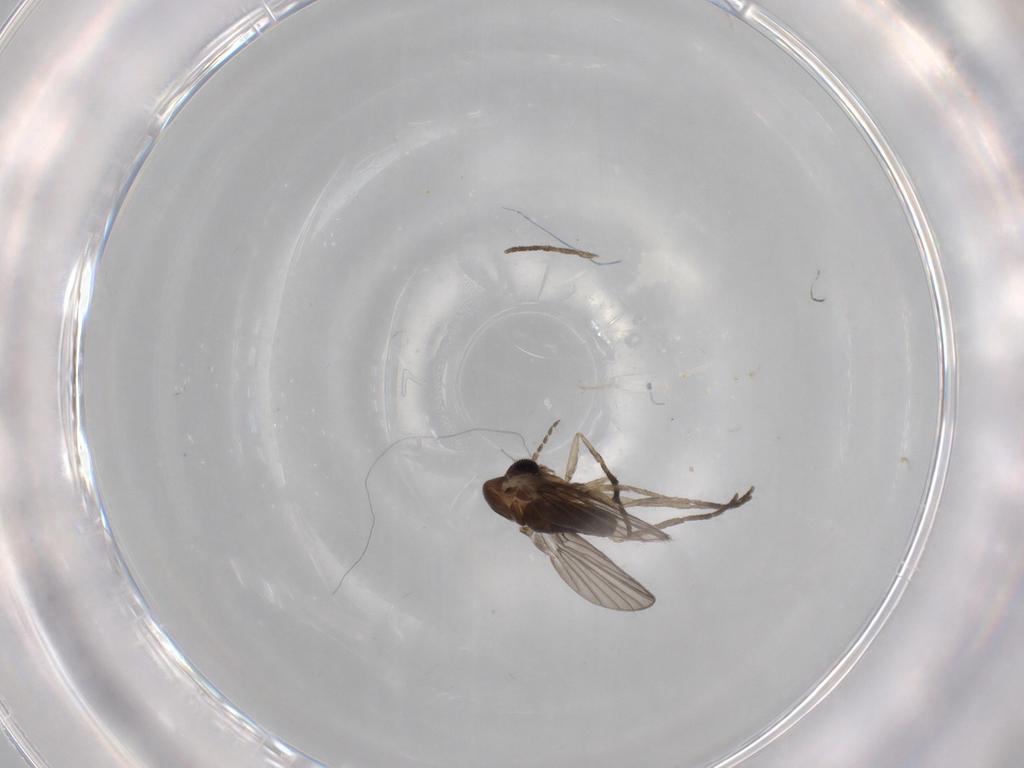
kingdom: Animalia
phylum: Arthropoda
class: Insecta
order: Diptera
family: Psychodidae
